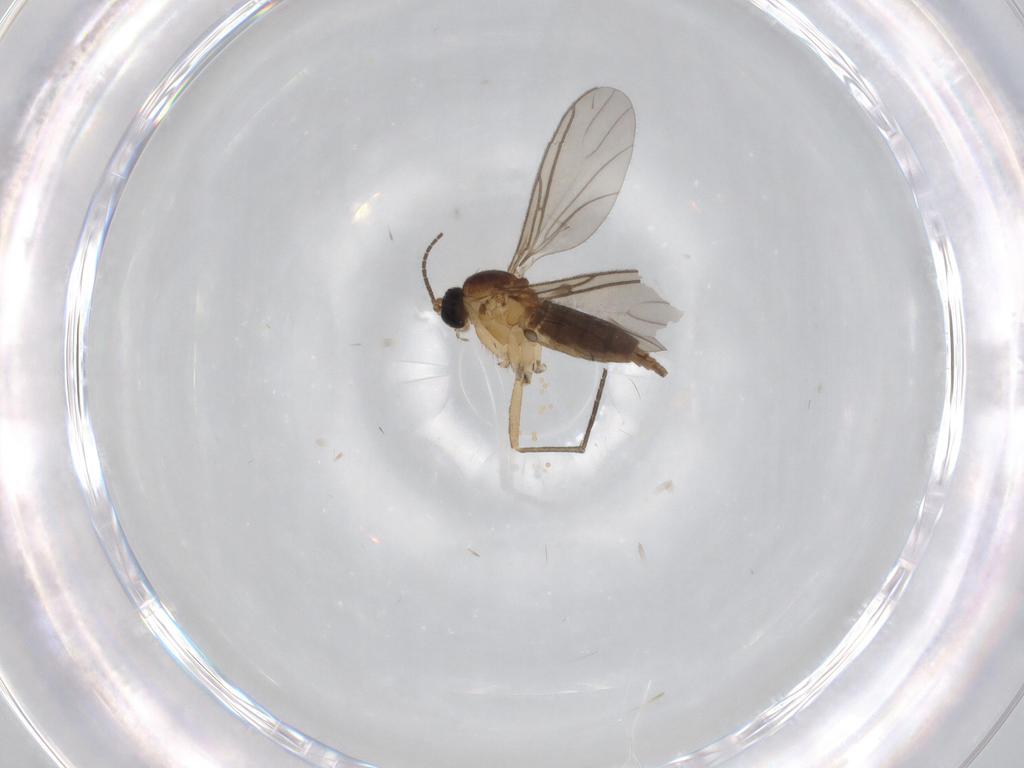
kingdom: Animalia
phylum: Arthropoda
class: Insecta
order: Diptera
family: Sciaridae
